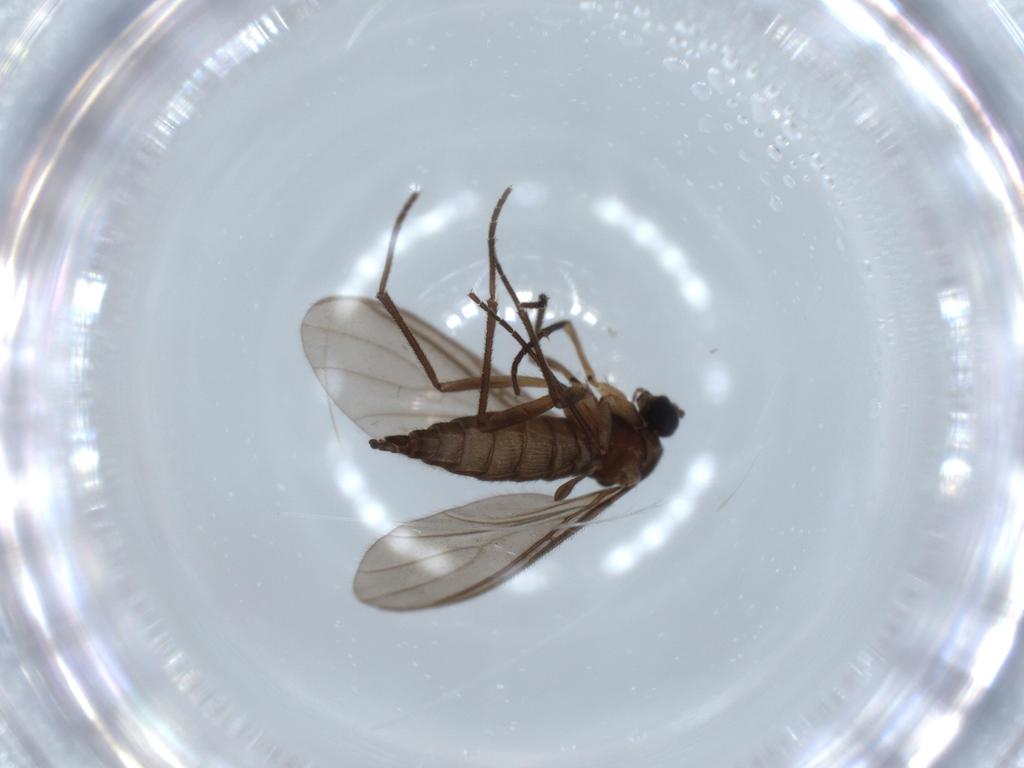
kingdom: Animalia
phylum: Arthropoda
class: Insecta
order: Diptera
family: Sciaridae
